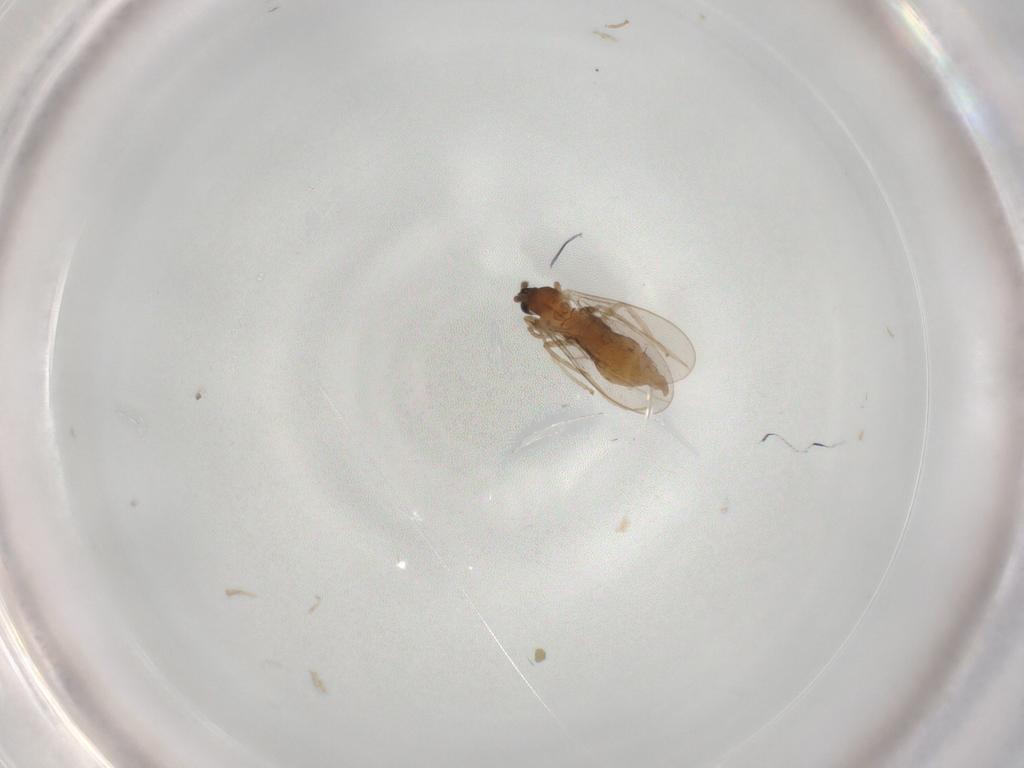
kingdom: Animalia
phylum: Arthropoda
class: Insecta
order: Diptera
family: Cecidomyiidae
